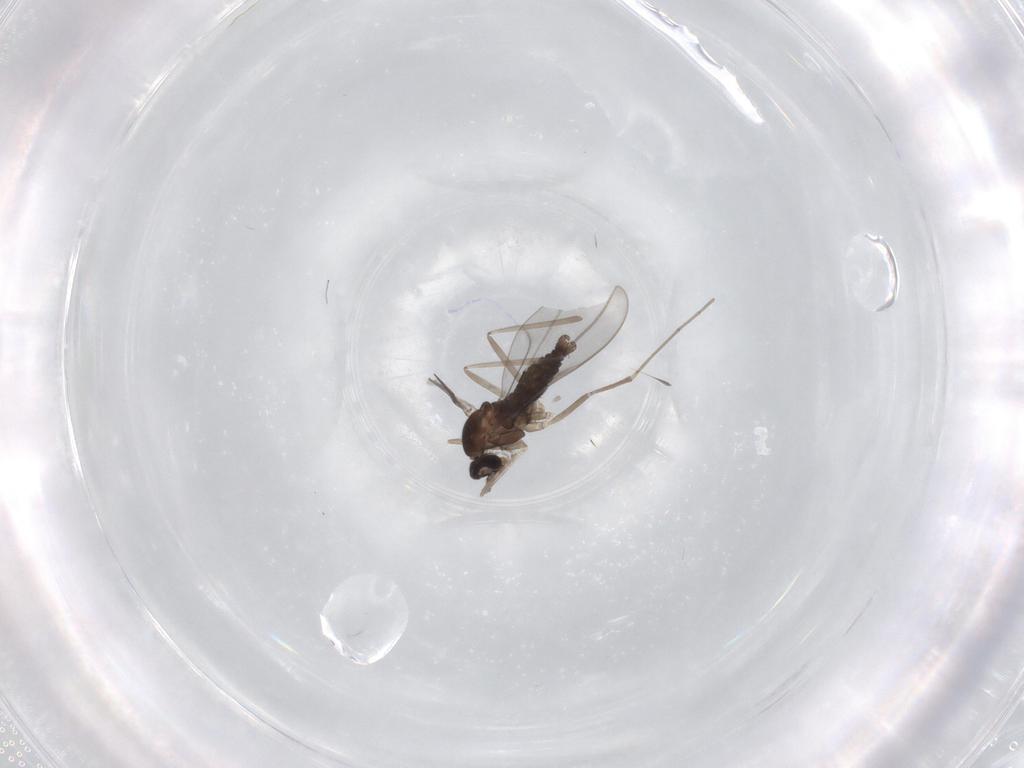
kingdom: Animalia
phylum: Arthropoda
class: Insecta
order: Diptera
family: Cecidomyiidae
